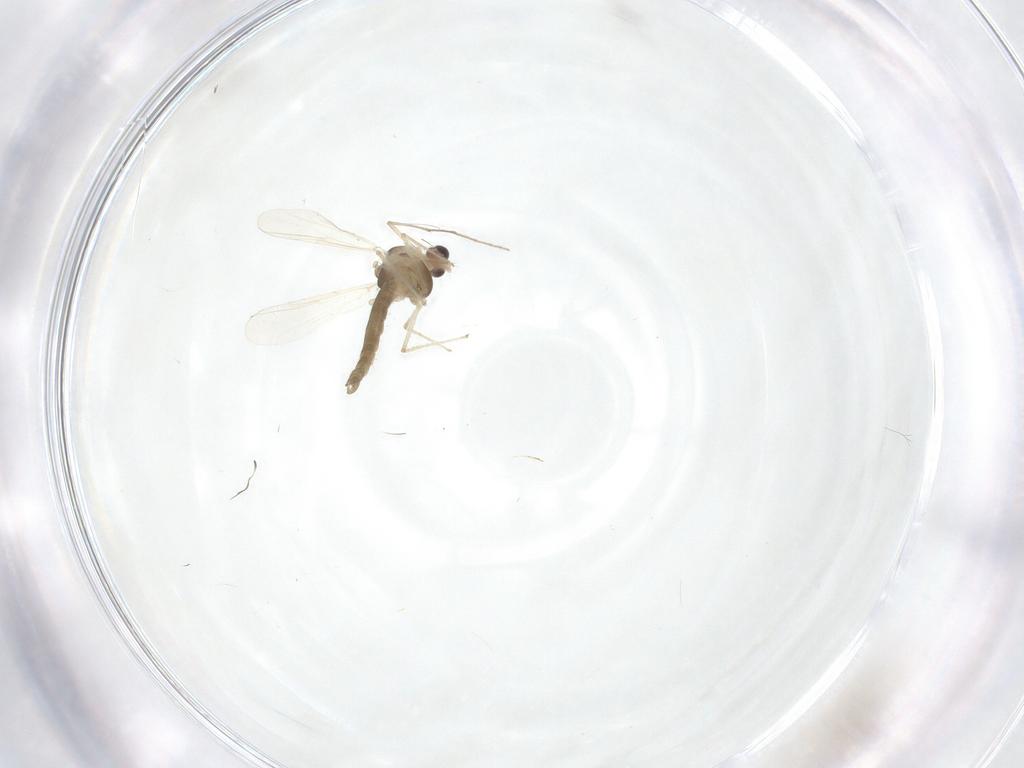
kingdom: Animalia
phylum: Arthropoda
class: Insecta
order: Diptera
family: Chironomidae
